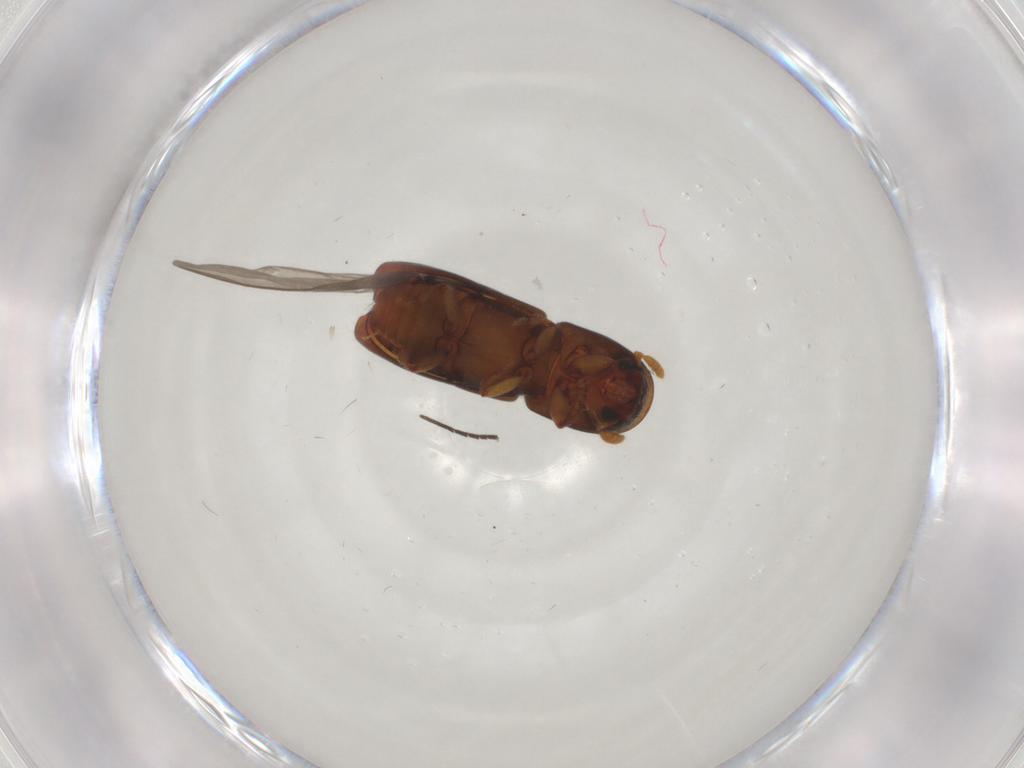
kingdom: Animalia
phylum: Arthropoda
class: Insecta
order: Coleoptera
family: Curculionidae
